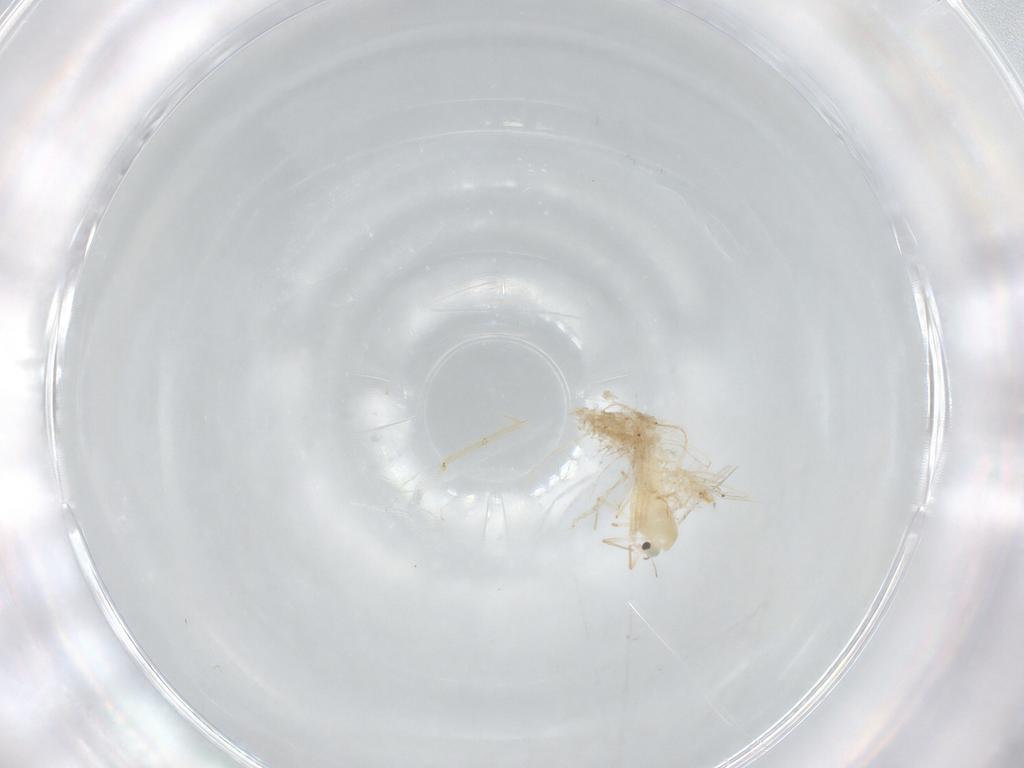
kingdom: Animalia
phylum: Arthropoda
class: Insecta
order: Diptera
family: Chironomidae
